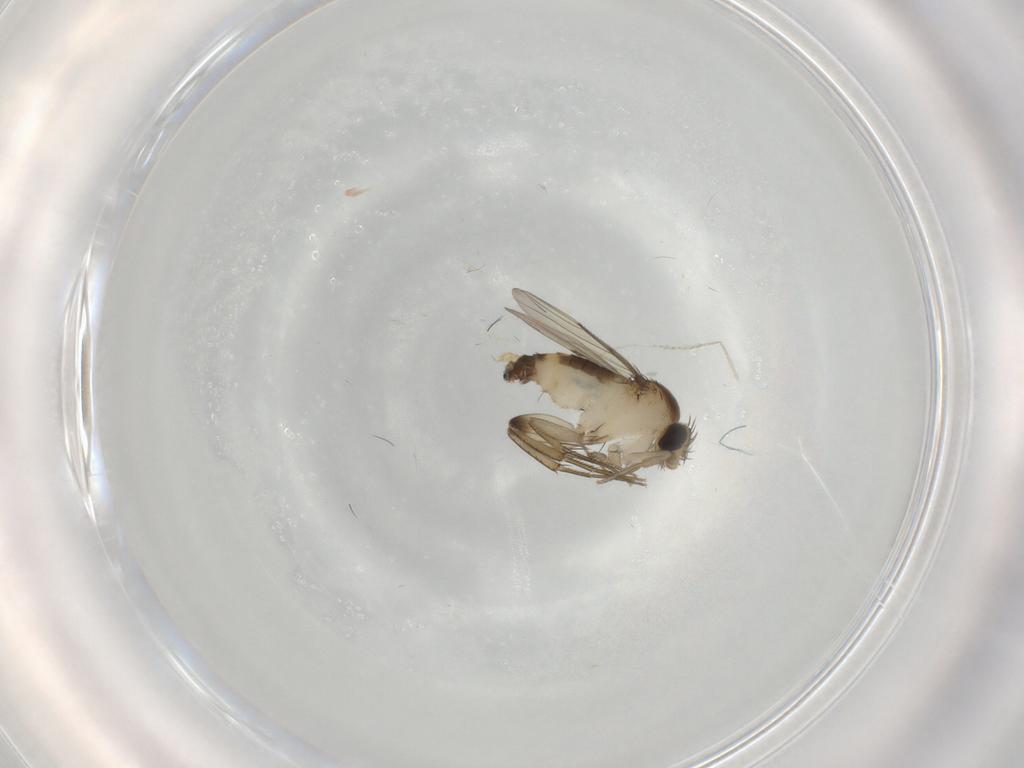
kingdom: Animalia
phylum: Arthropoda
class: Insecta
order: Diptera
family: Phoridae
